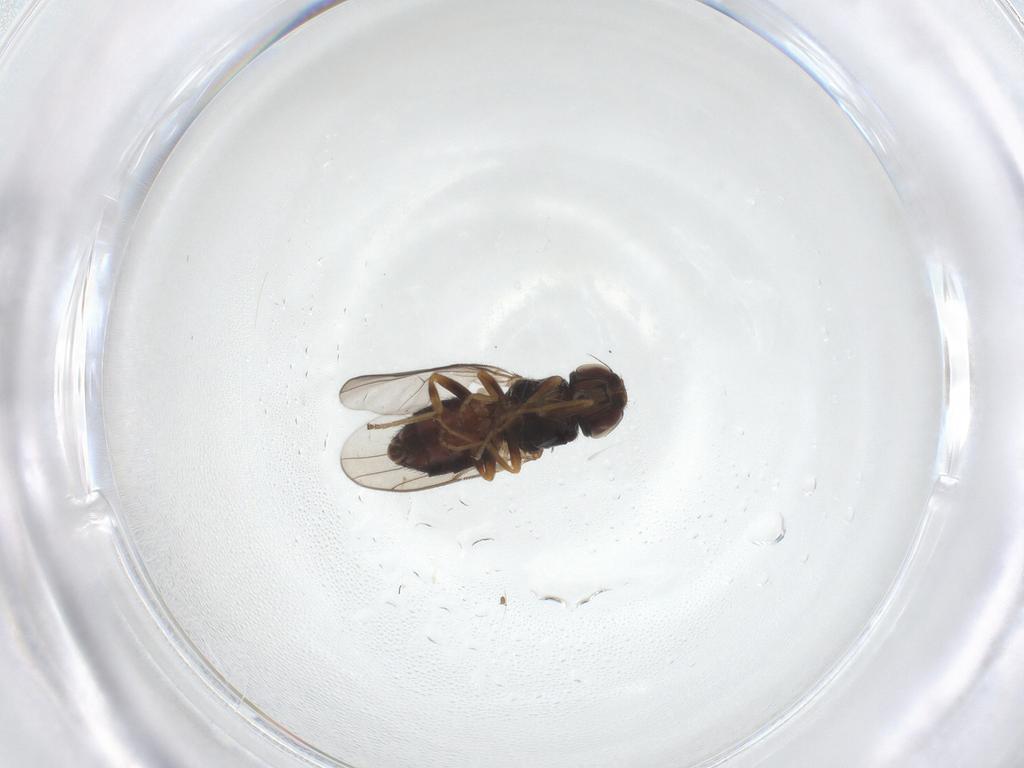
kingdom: Animalia
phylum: Arthropoda
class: Insecta
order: Diptera
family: Chloropidae
